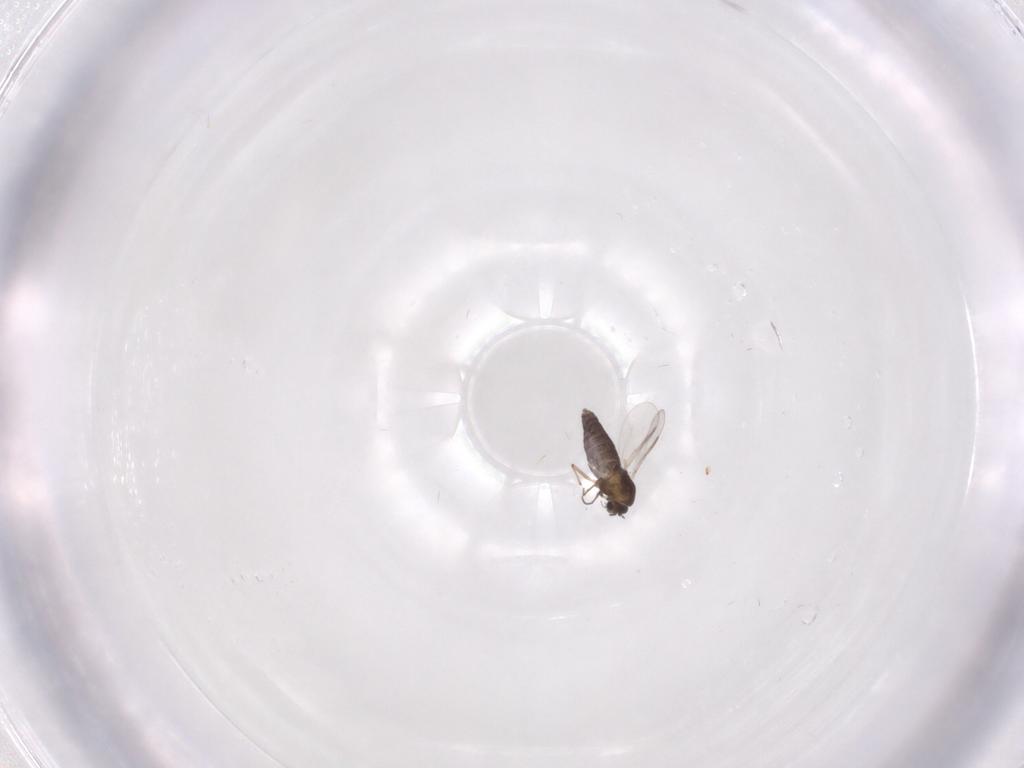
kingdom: Animalia
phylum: Arthropoda
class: Insecta
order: Diptera
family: Chironomidae
